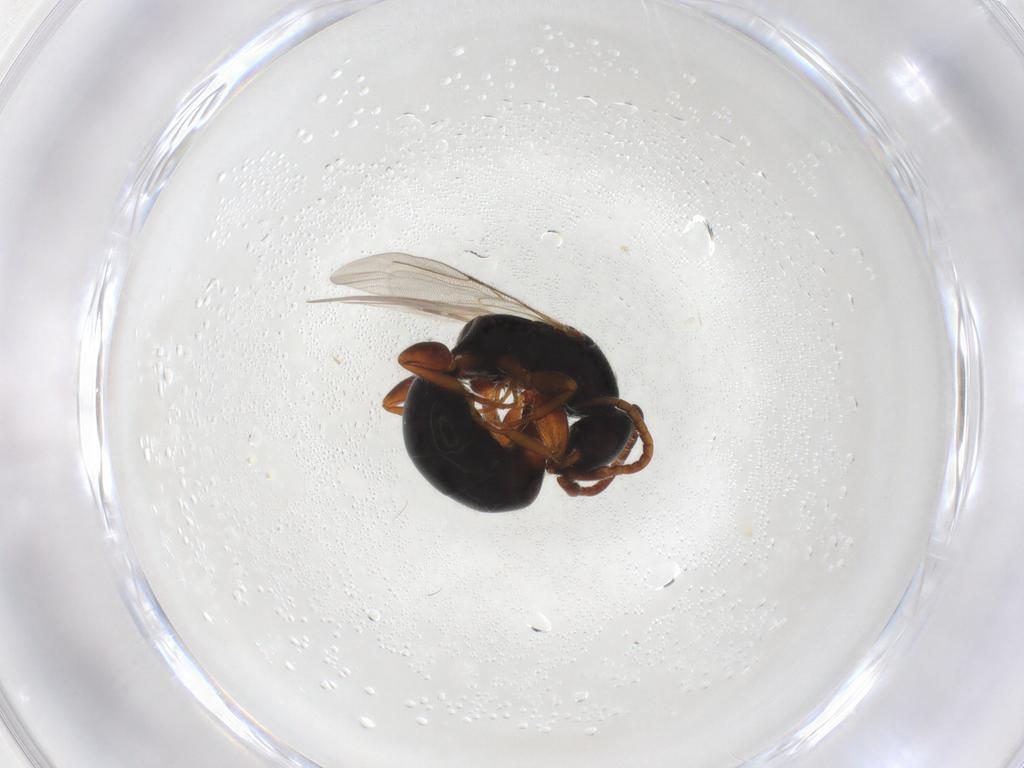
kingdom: Animalia
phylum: Arthropoda
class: Insecta
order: Hymenoptera
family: Bethylidae
